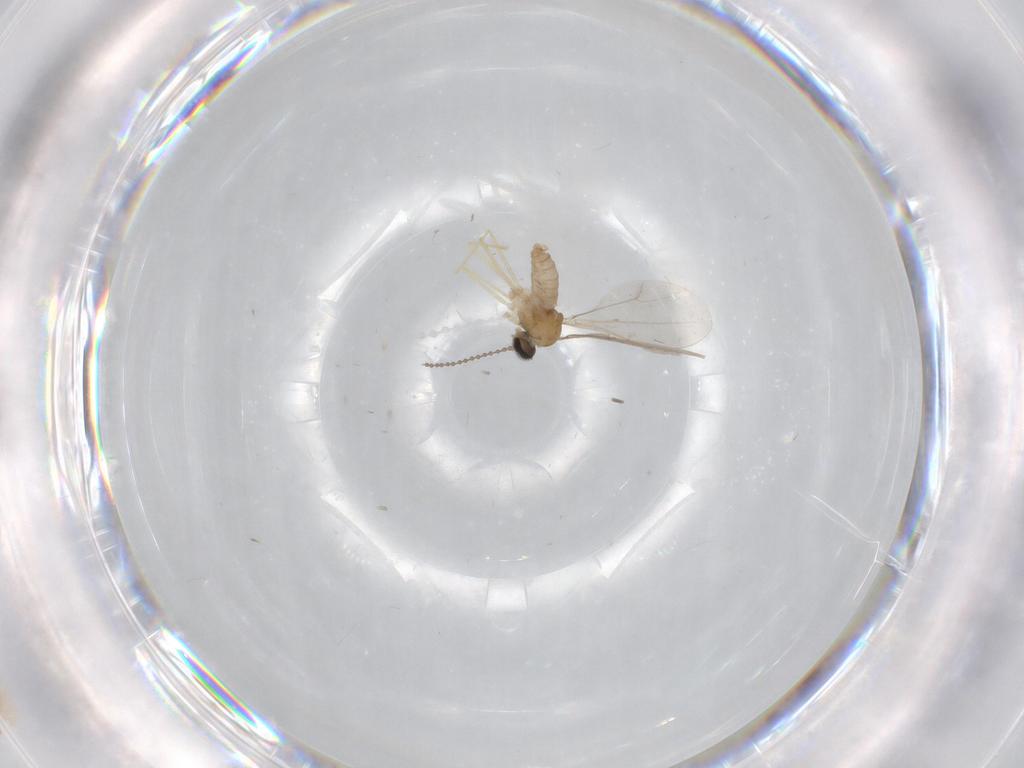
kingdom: Animalia
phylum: Arthropoda
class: Insecta
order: Diptera
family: Cecidomyiidae
